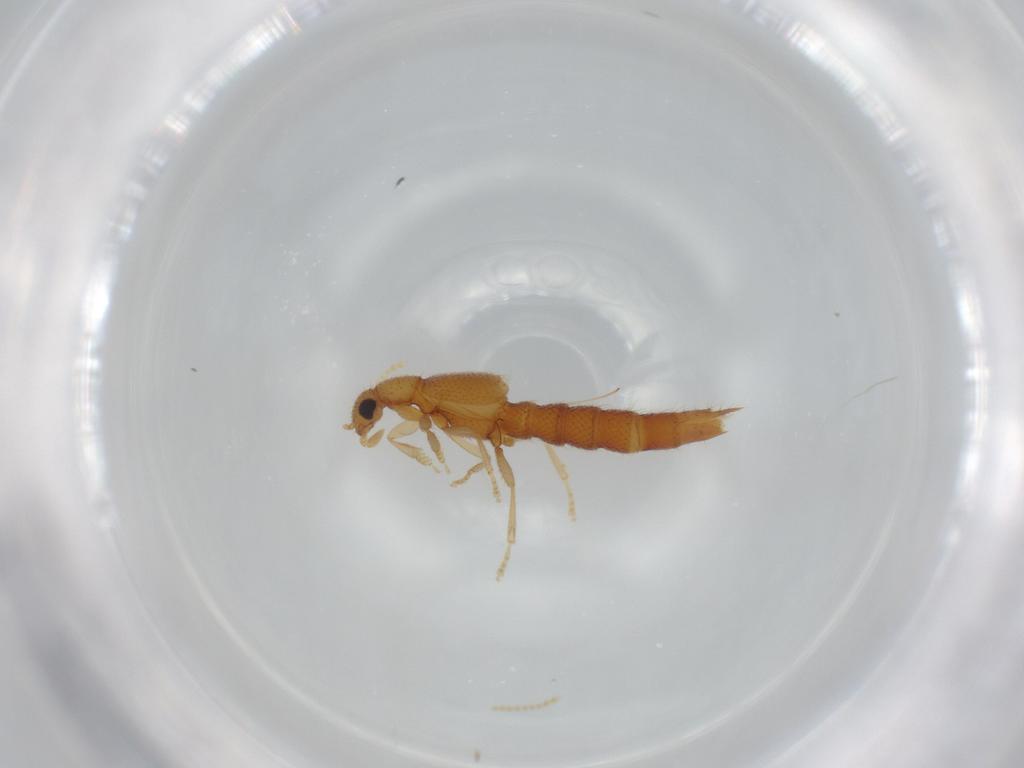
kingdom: Animalia
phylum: Arthropoda
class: Insecta
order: Coleoptera
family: Staphylinidae
